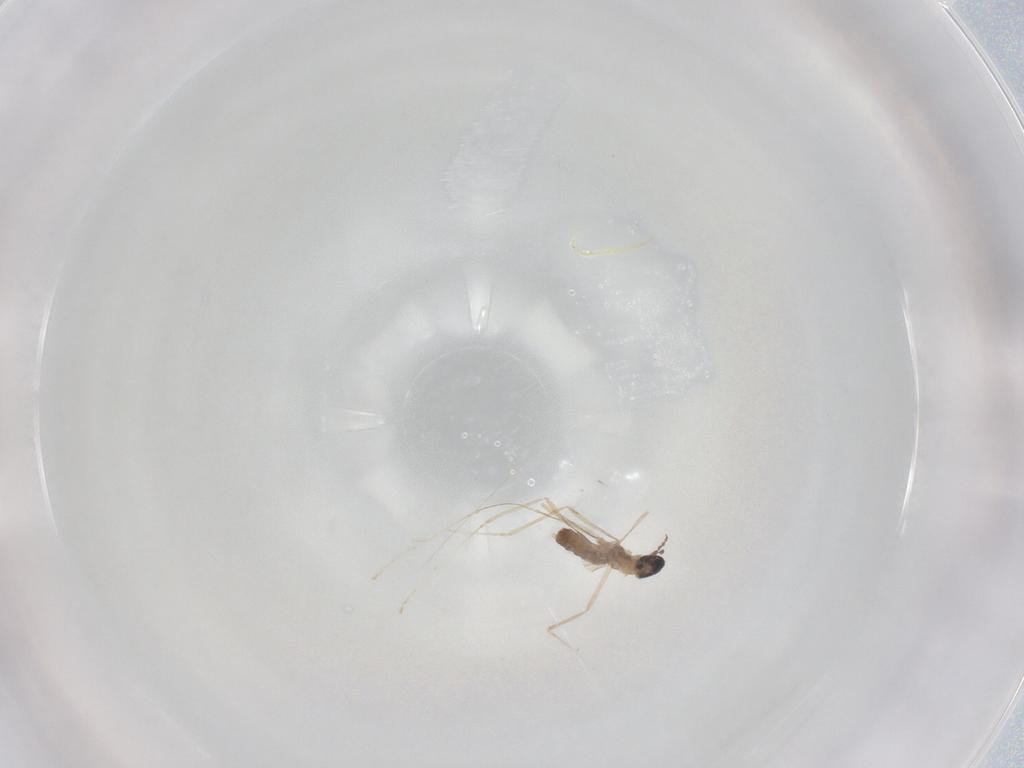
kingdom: Animalia
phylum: Arthropoda
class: Insecta
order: Diptera
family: Cecidomyiidae
